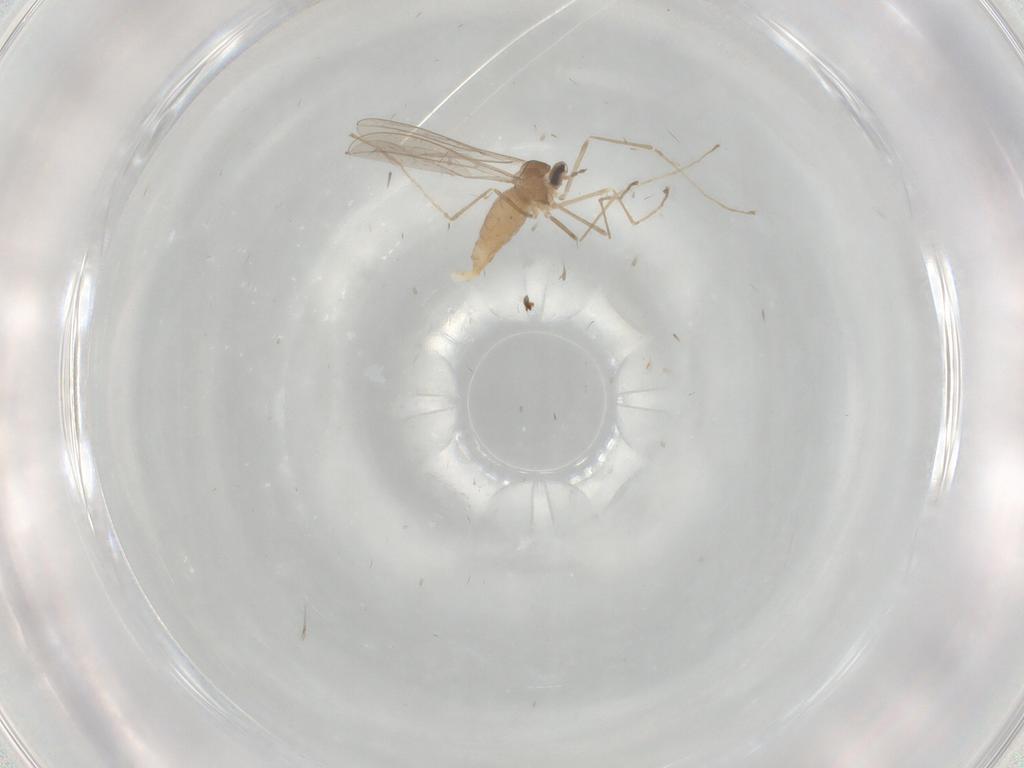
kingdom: Animalia
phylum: Arthropoda
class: Insecta
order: Diptera
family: Cecidomyiidae
